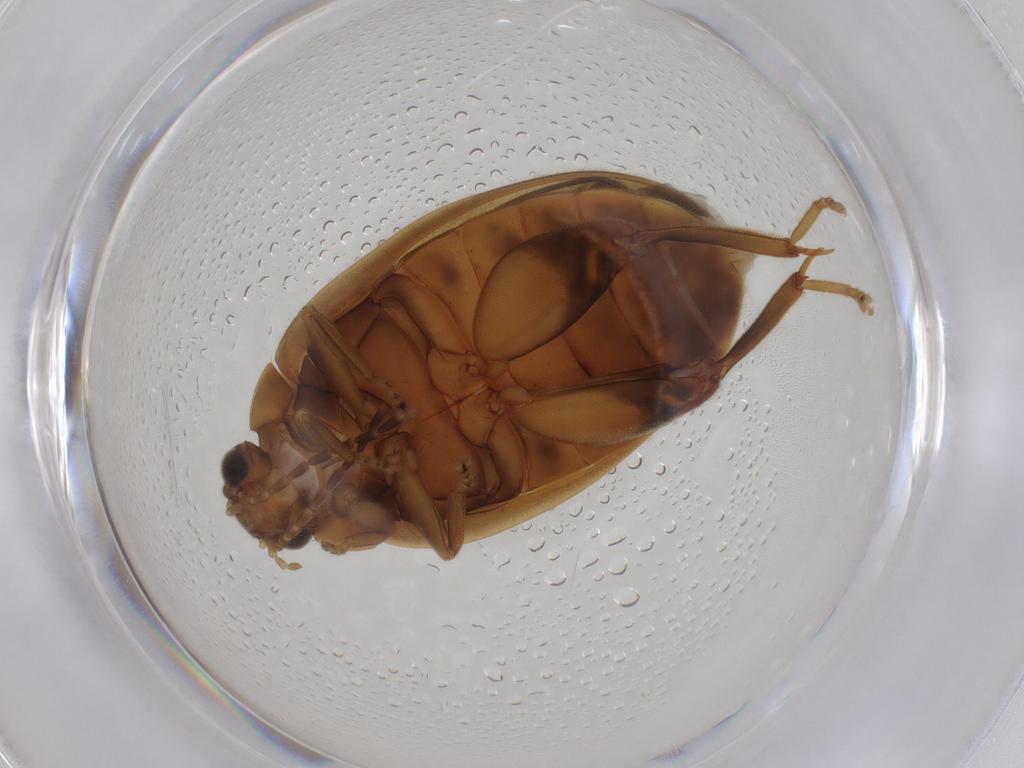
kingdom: Animalia
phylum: Arthropoda
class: Insecta
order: Coleoptera
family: Scirtidae
